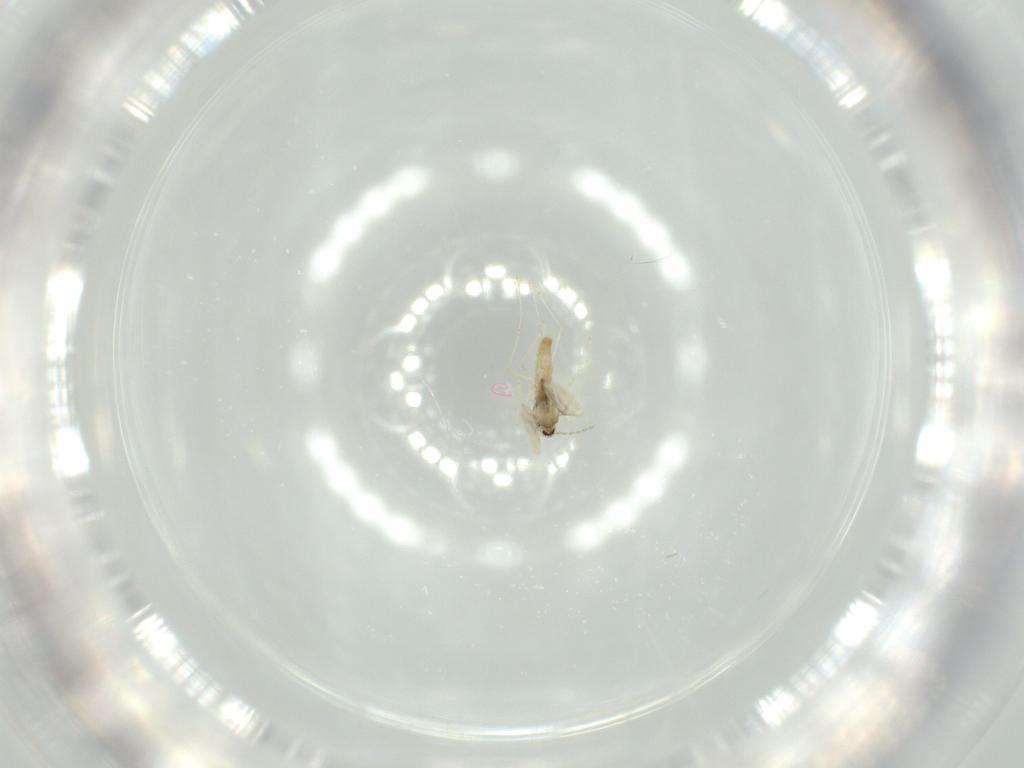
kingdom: Animalia
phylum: Arthropoda
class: Insecta
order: Diptera
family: Cecidomyiidae
